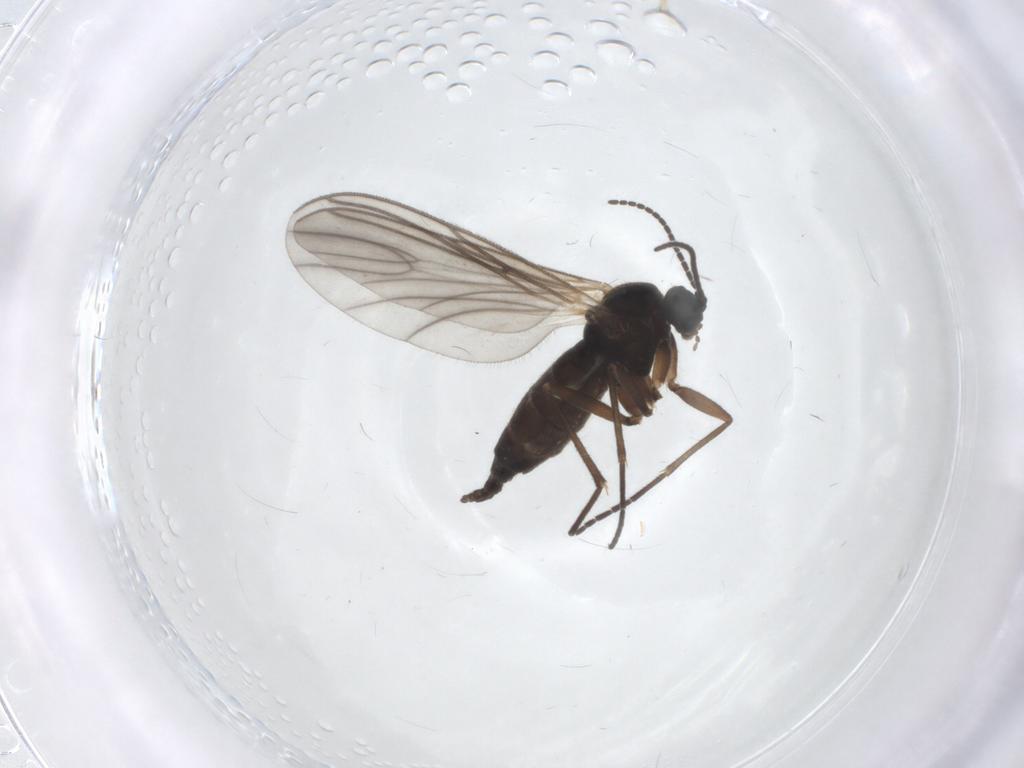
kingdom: Animalia
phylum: Arthropoda
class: Insecta
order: Diptera
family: Sciaridae
